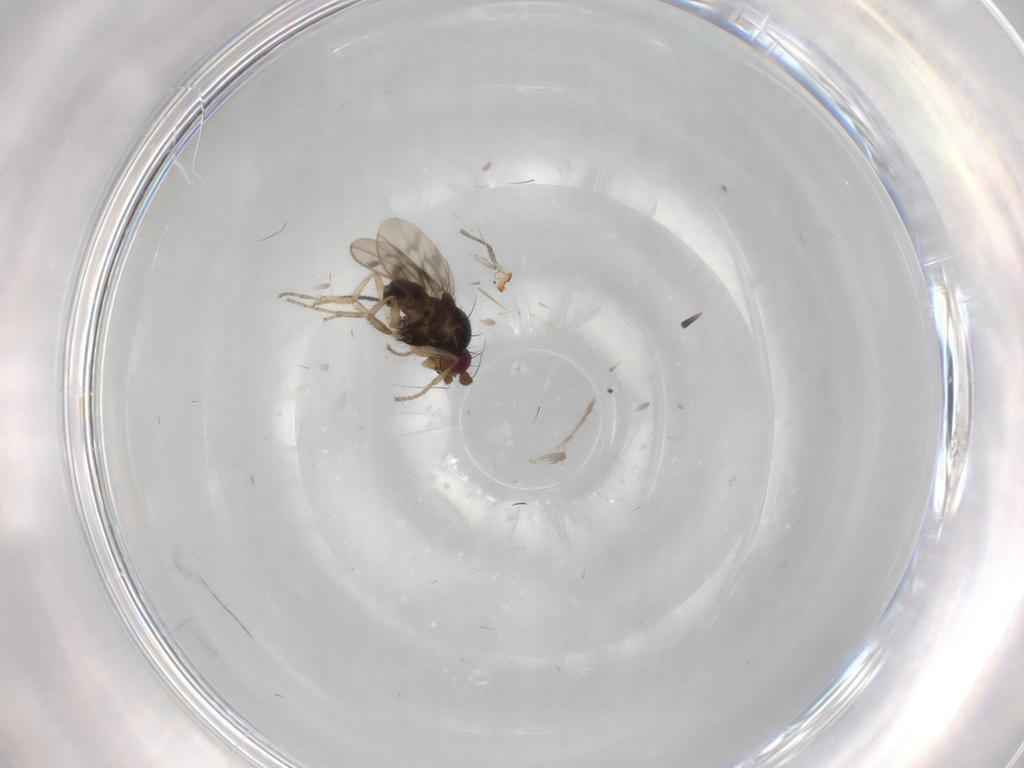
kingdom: Animalia
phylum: Arthropoda
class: Insecta
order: Diptera
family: Sphaeroceridae
